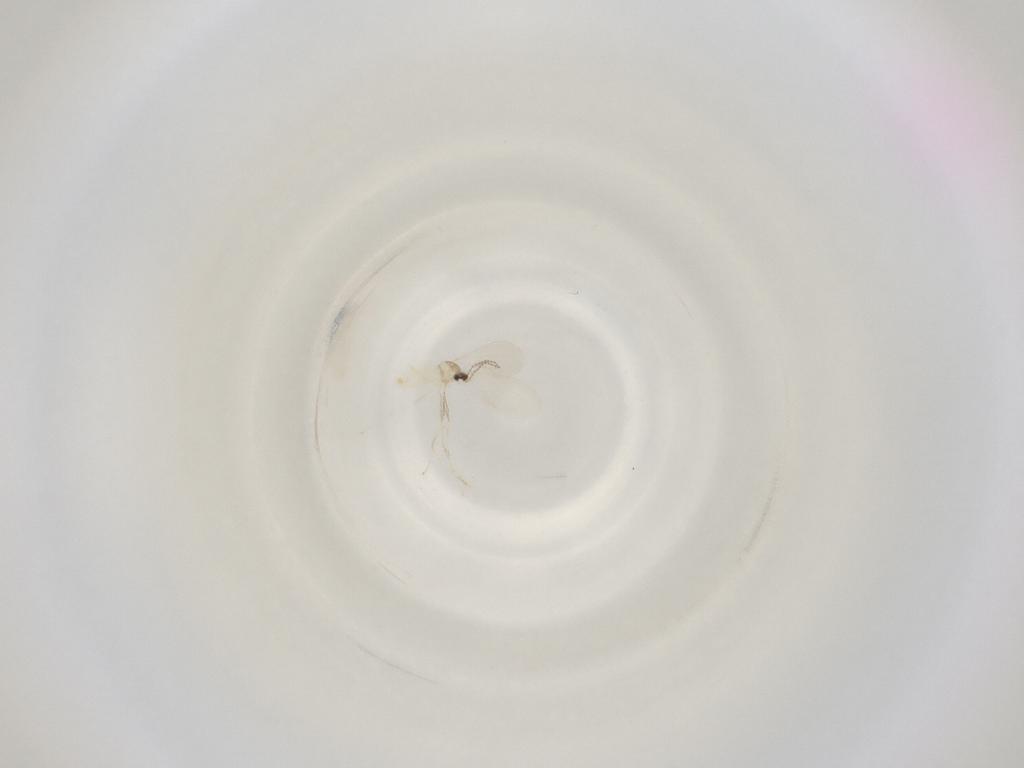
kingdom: Animalia
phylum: Arthropoda
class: Insecta
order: Diptera
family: Cecidomyiidae
